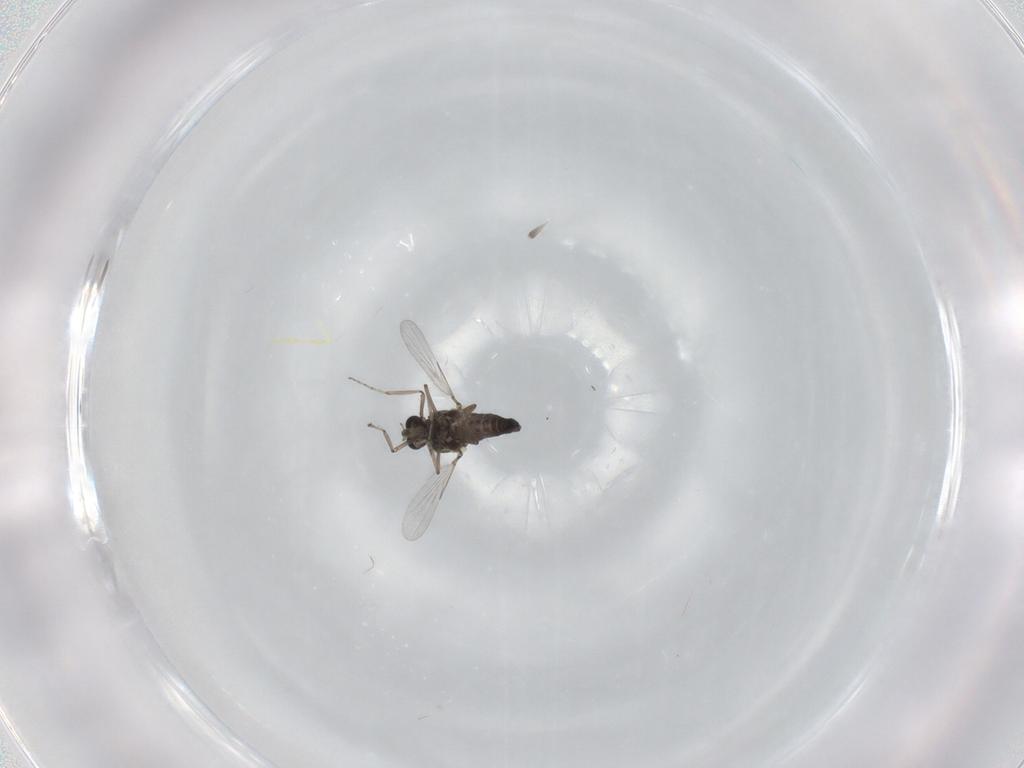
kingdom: Animalia
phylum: Arthropoda
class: Insecta
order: Diptera
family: Ceratopogonidae
